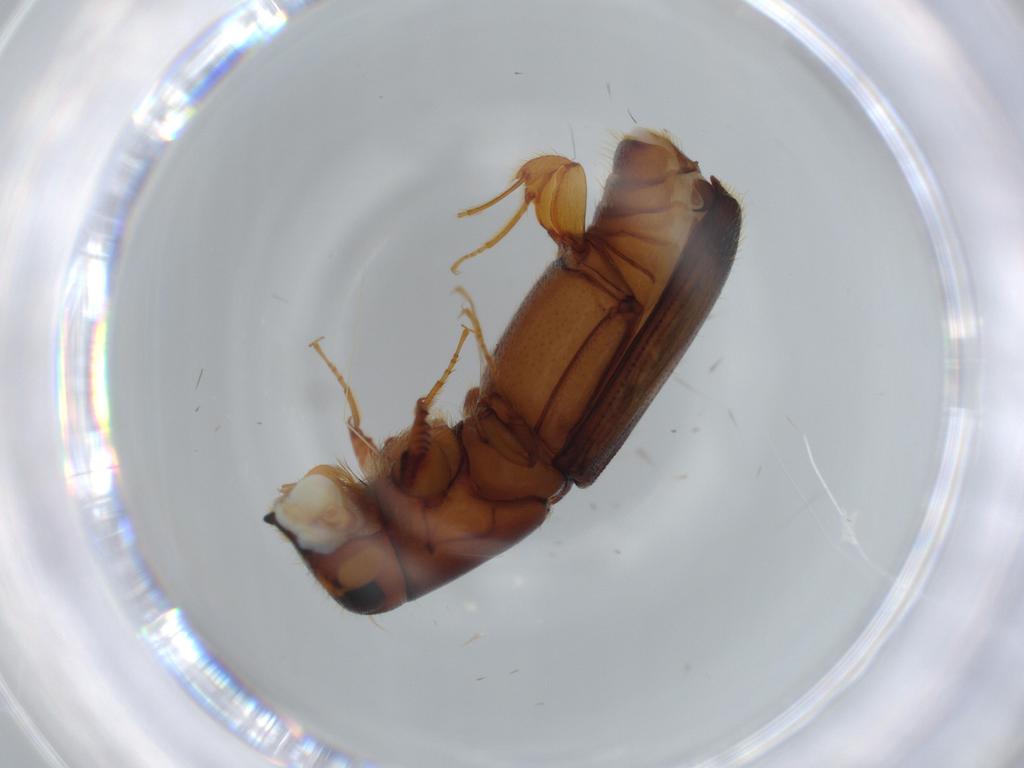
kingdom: Animalia
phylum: Arthropoda
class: Insecta
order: Coleoptera
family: Curculionidae
